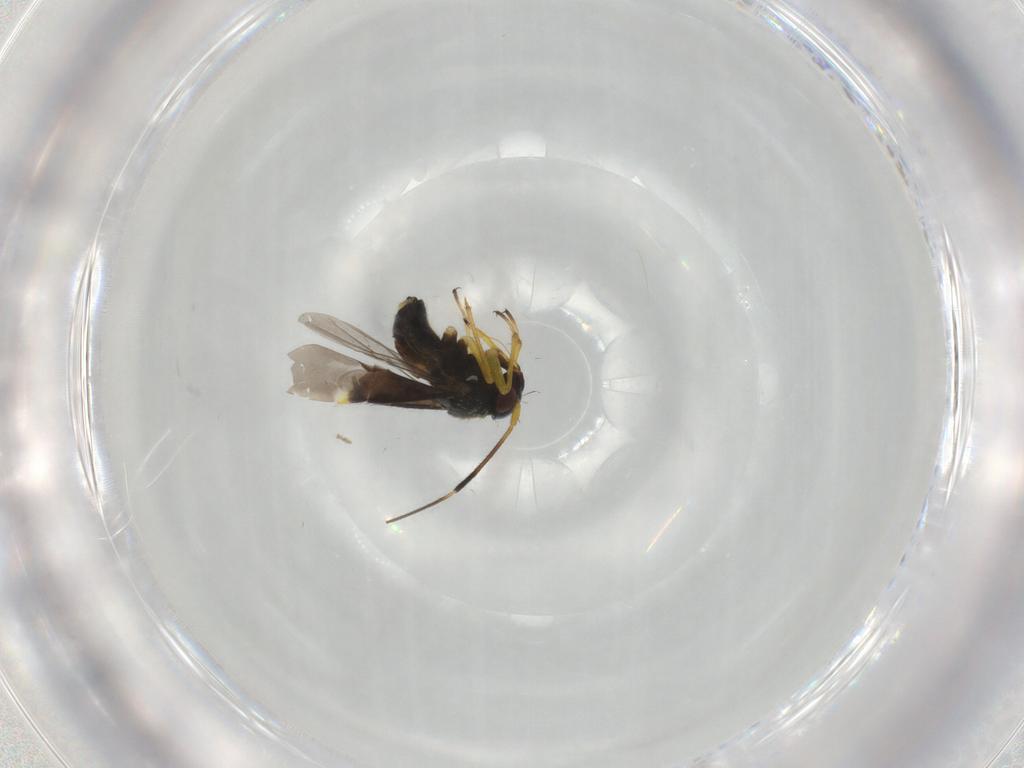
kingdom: Animalia
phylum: Arthropoda
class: Insecta
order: Hemiptera
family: Miridae
